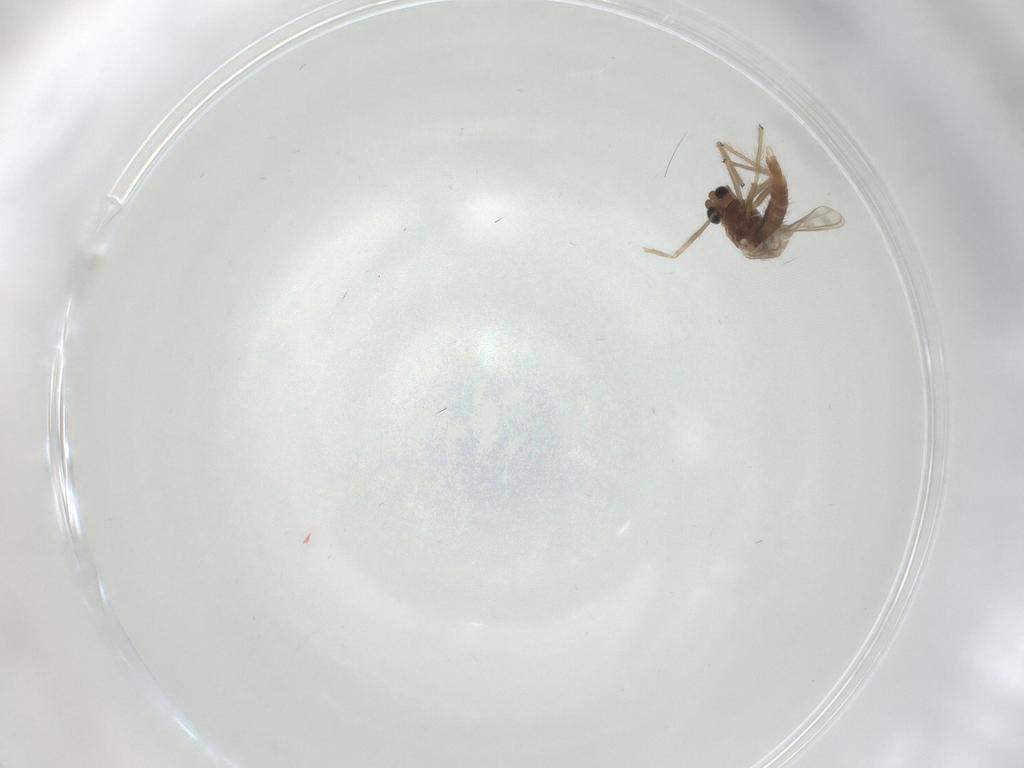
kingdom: Animalia
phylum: Arthropoda
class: Insecta
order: Diptera
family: Chironomidae
